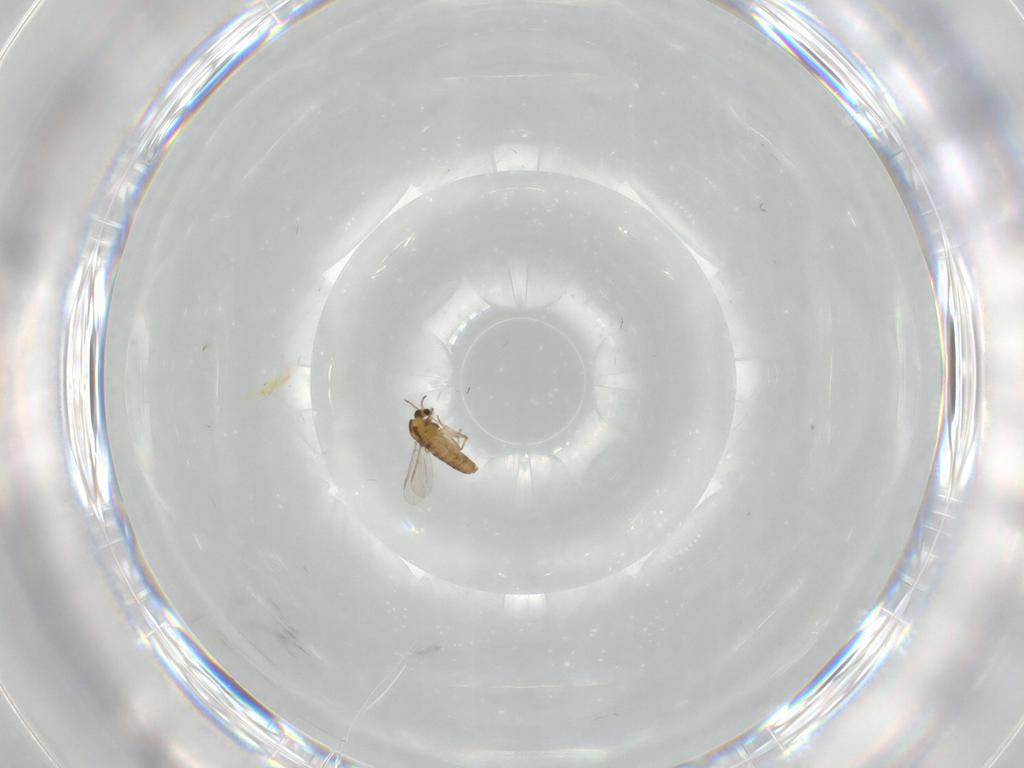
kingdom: Animalia
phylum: Arthropoda
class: Insecta
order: Diptera
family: Chironomidae
